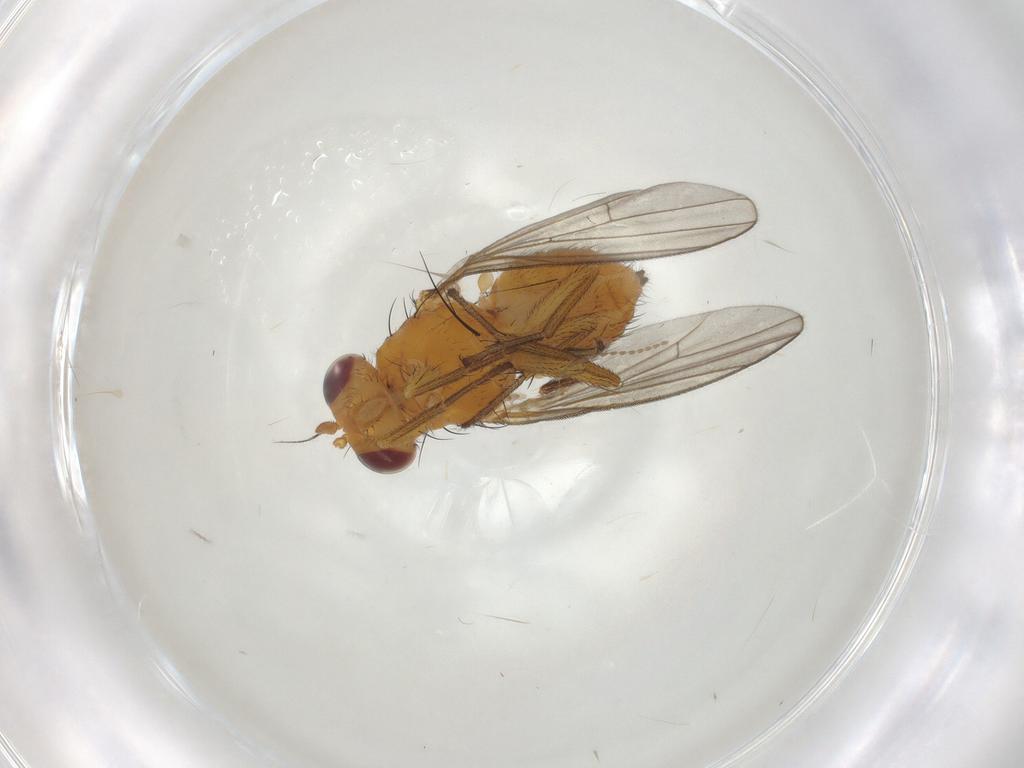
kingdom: Animalia
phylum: Arthropoda
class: Insecta
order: Diptera
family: Lauxaniidae
